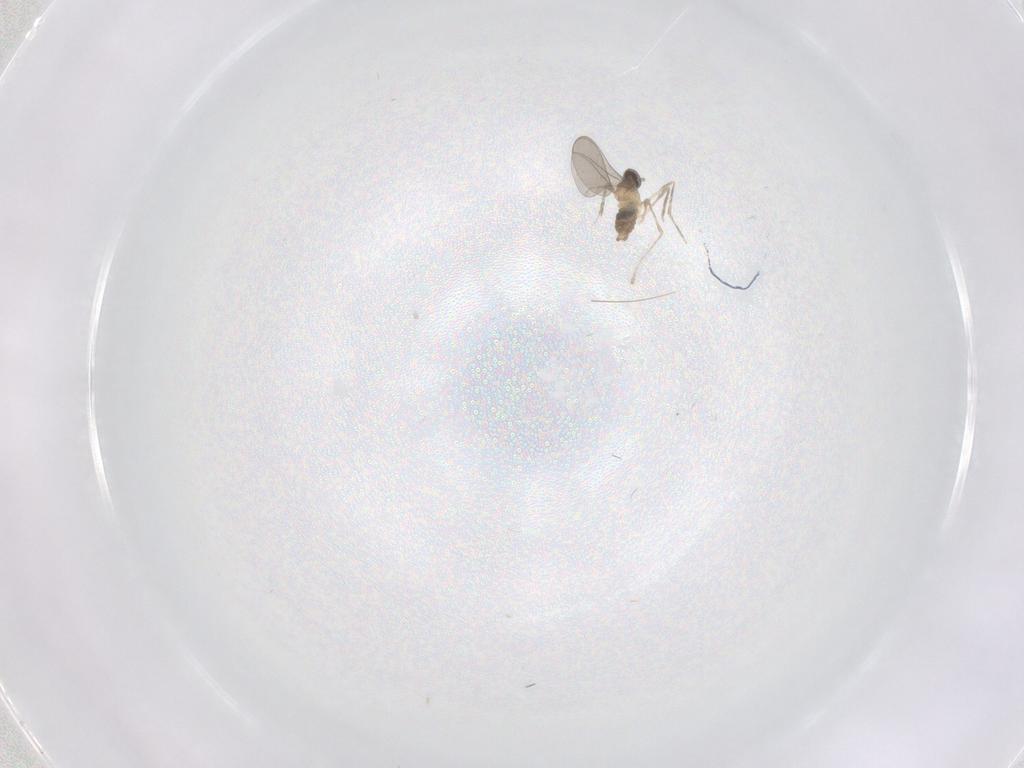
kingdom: Animalia
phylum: Arthropoda
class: Insecta
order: Diptera
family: Cecidomyiidae
